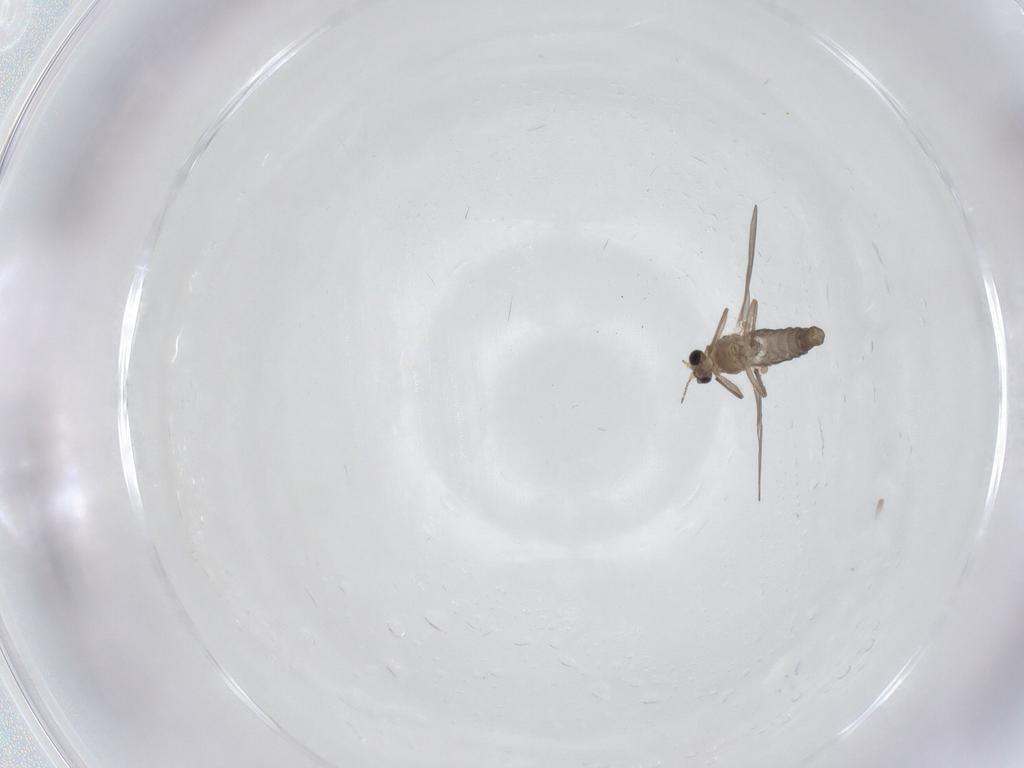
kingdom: Animalia
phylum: Arthropoda
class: Insecta
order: Diptera
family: Chironomidae
